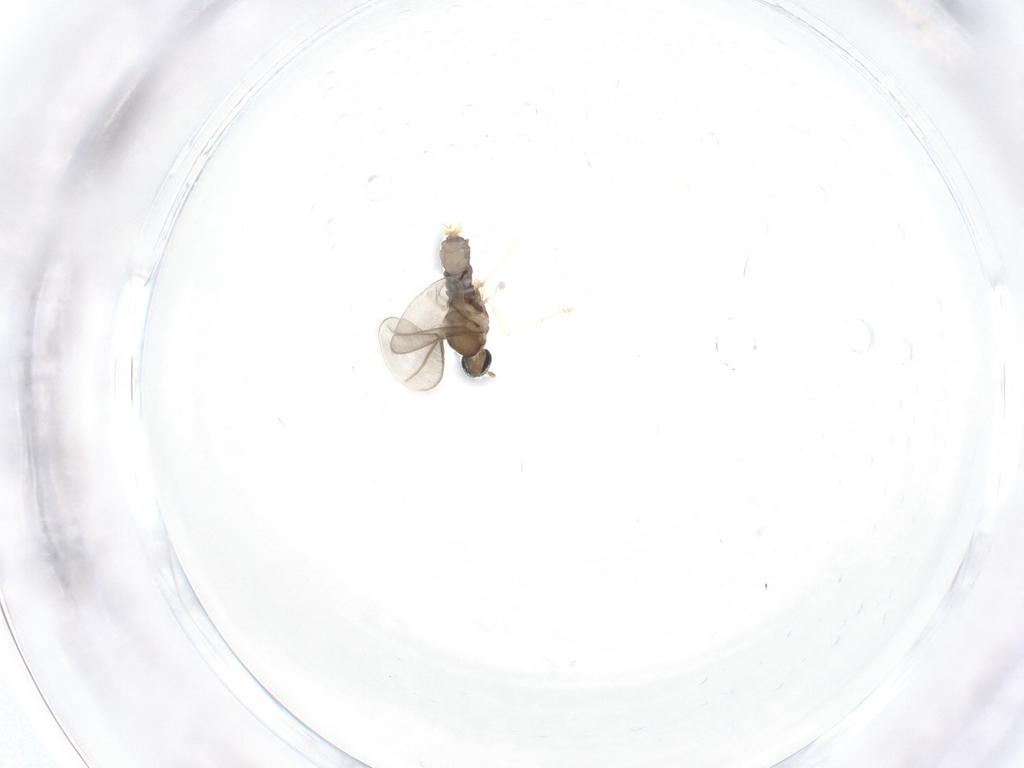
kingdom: Animalia
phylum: Arthropoda
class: Insecta
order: Diptera
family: Cecidomyiidae
